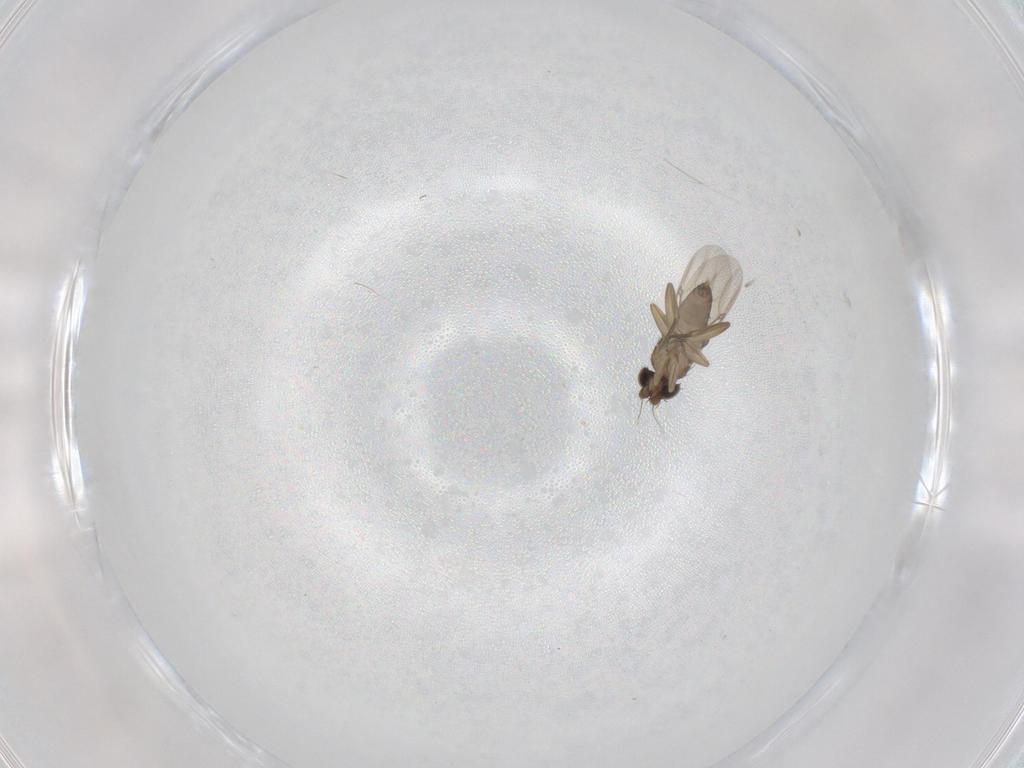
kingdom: Animalia
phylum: Arthropoda
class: Insecta
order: Diptera
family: Phoridae
